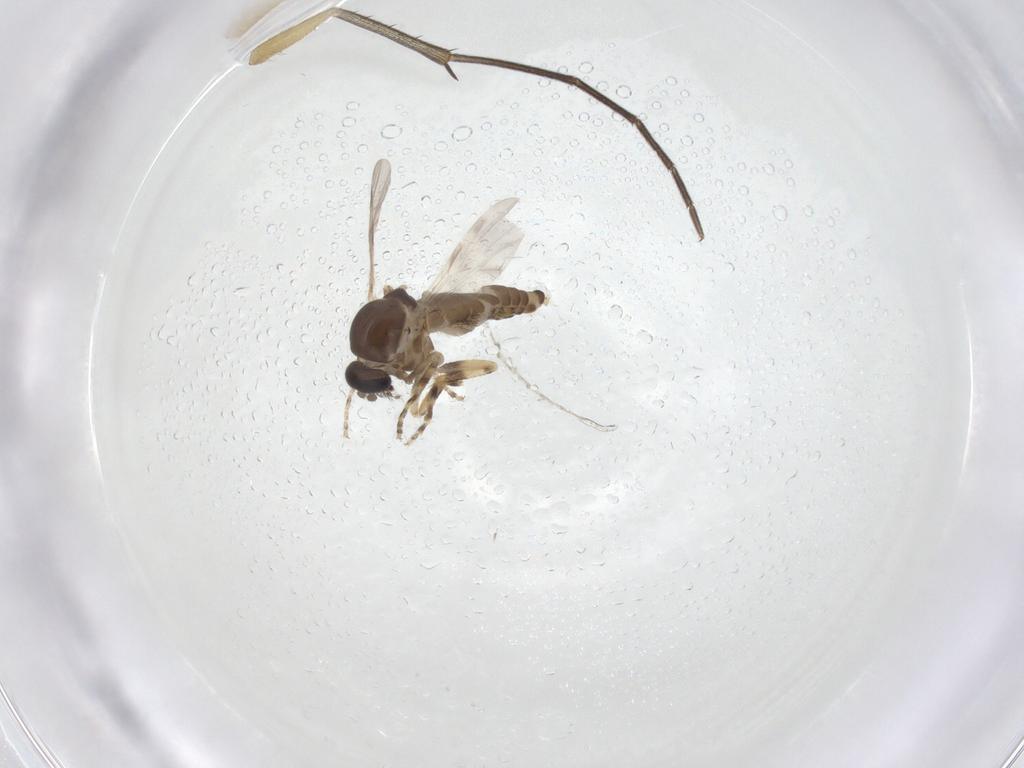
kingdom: Animalia
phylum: Arthropoda
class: Insecta
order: Diptera
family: Ceratopogonidae
